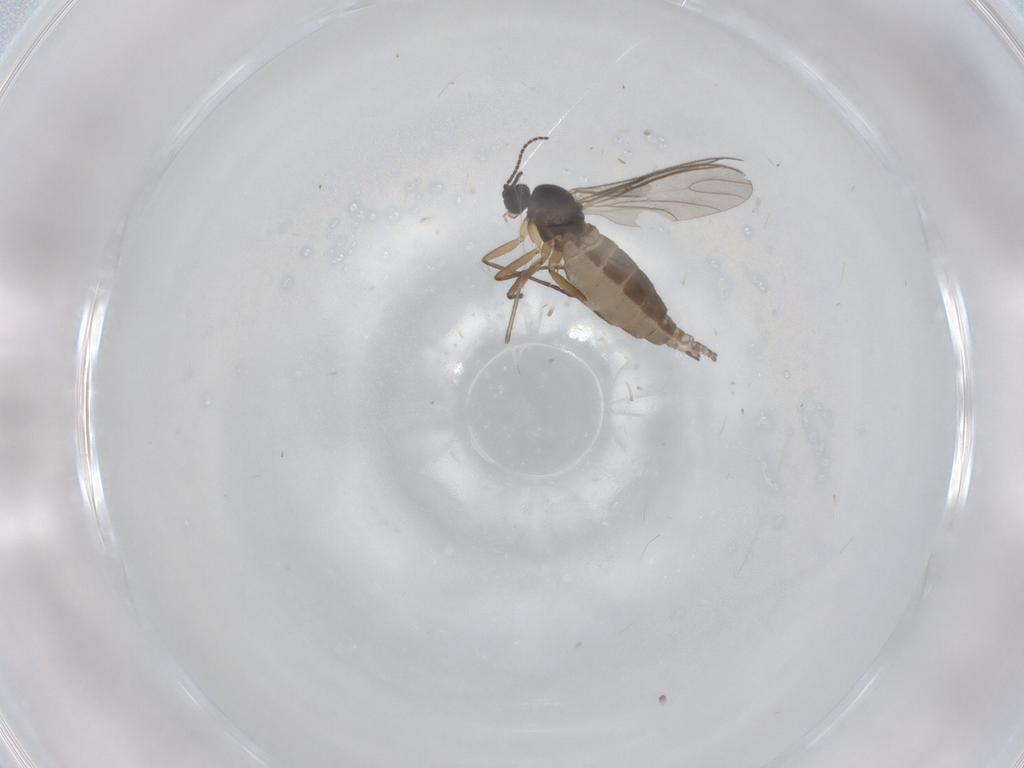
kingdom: Animalia
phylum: Arthropoda
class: Insecta
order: Diptera
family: Sciaridae
